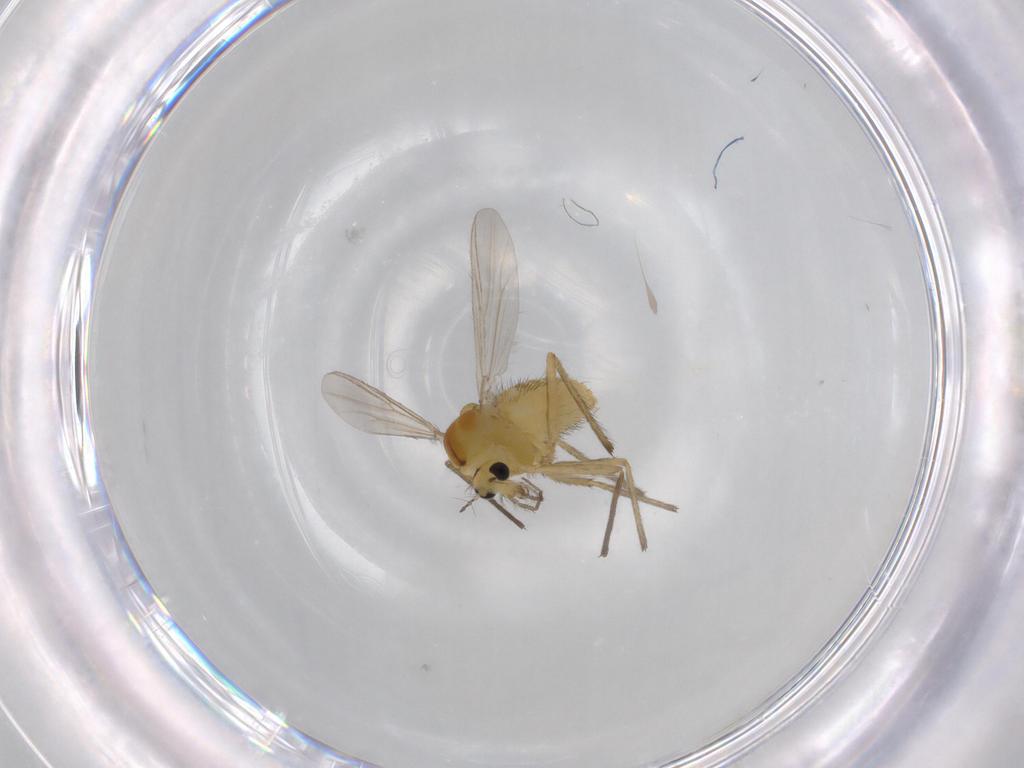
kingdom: Animalia
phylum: Arthropoda
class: Insecta
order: Diptera
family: Chironomidae
